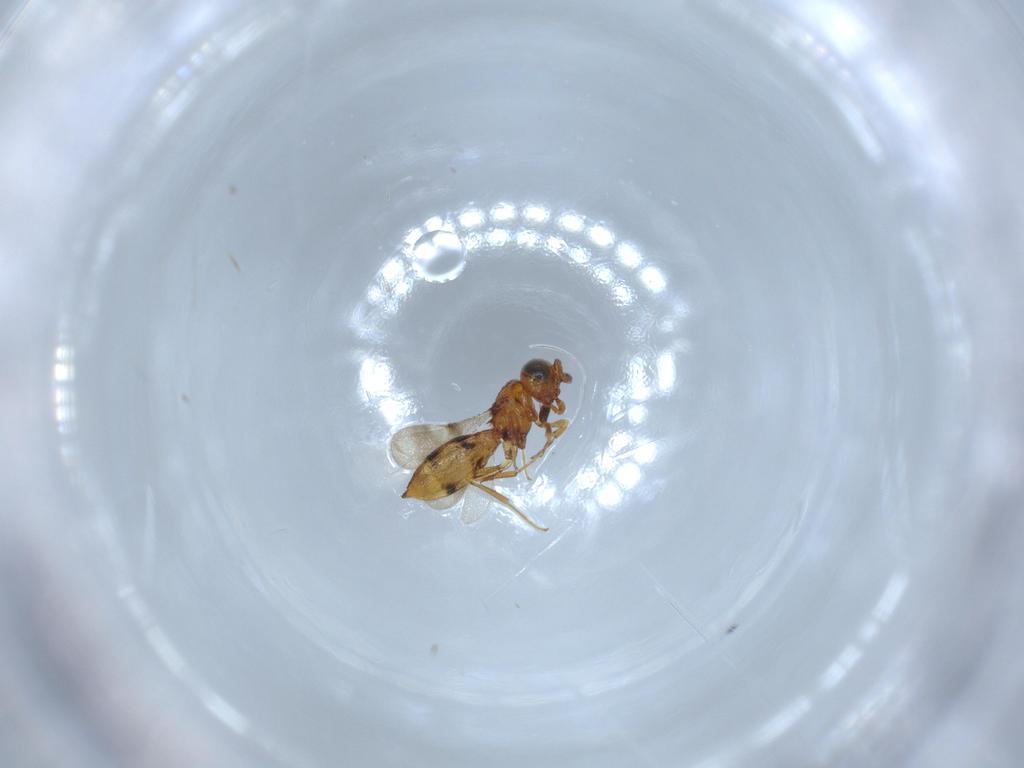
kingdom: Animalia
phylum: Arthropoda
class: Insecta
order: Hymenoptera
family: Scelionidae
